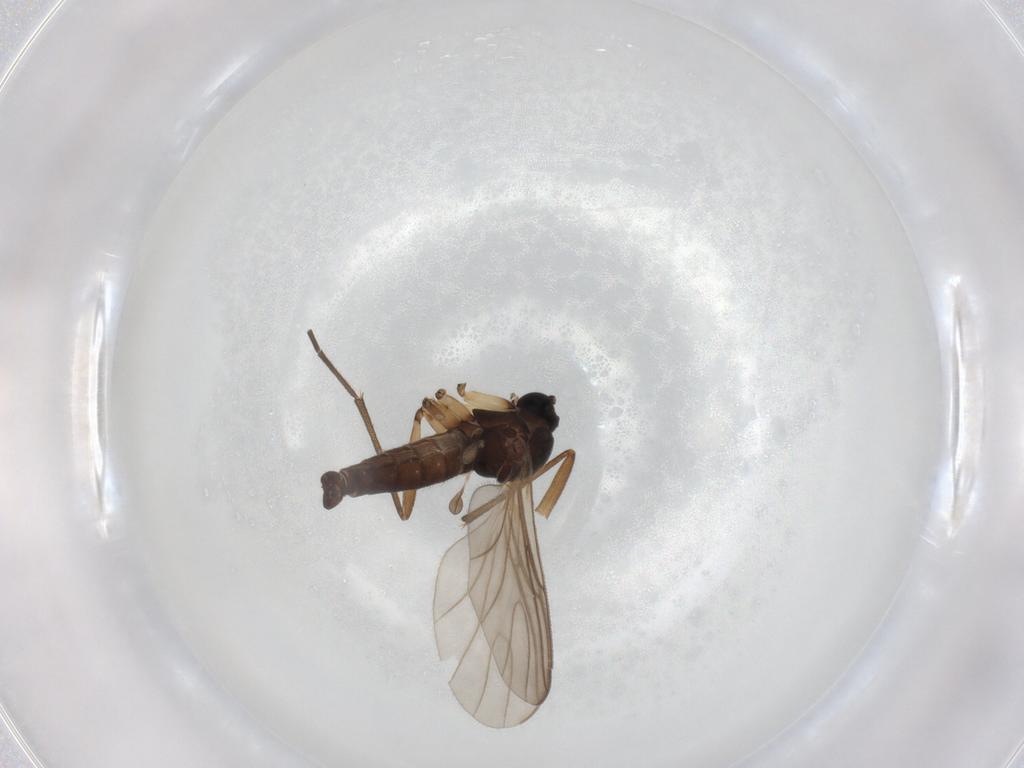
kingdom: Animalia
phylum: Arthropoda
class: Insecta
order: Diptera
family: Sciaridae
